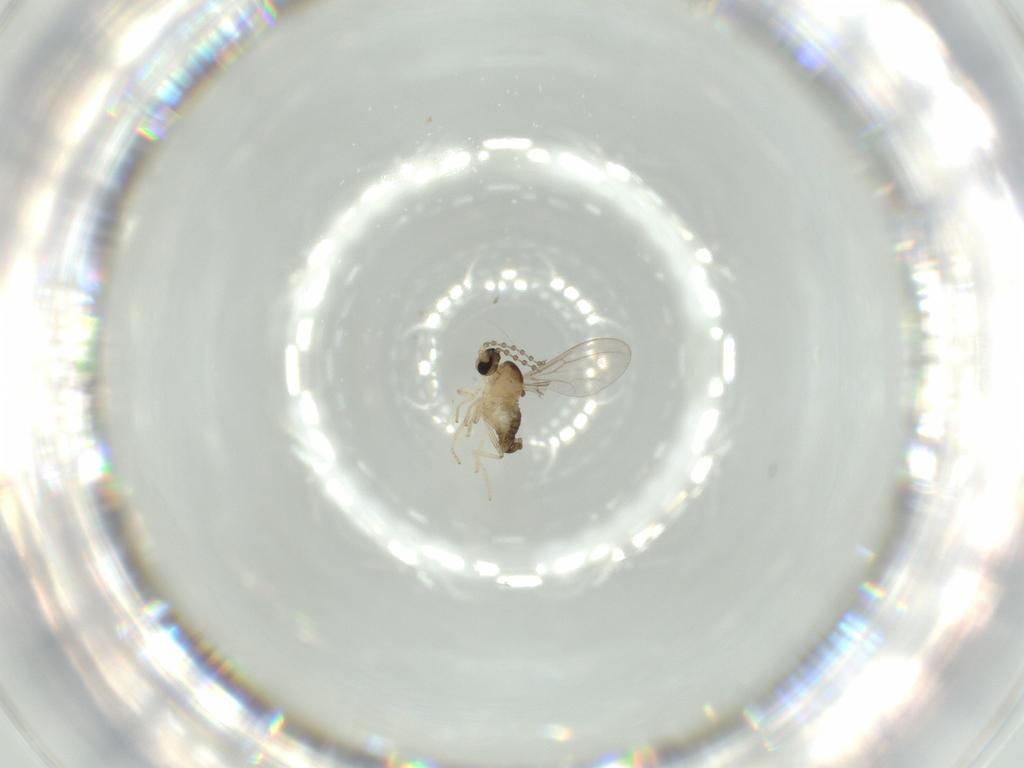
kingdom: Animalia
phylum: Arthropoda
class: Insecta
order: Diptera
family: Cecidomyiidae
